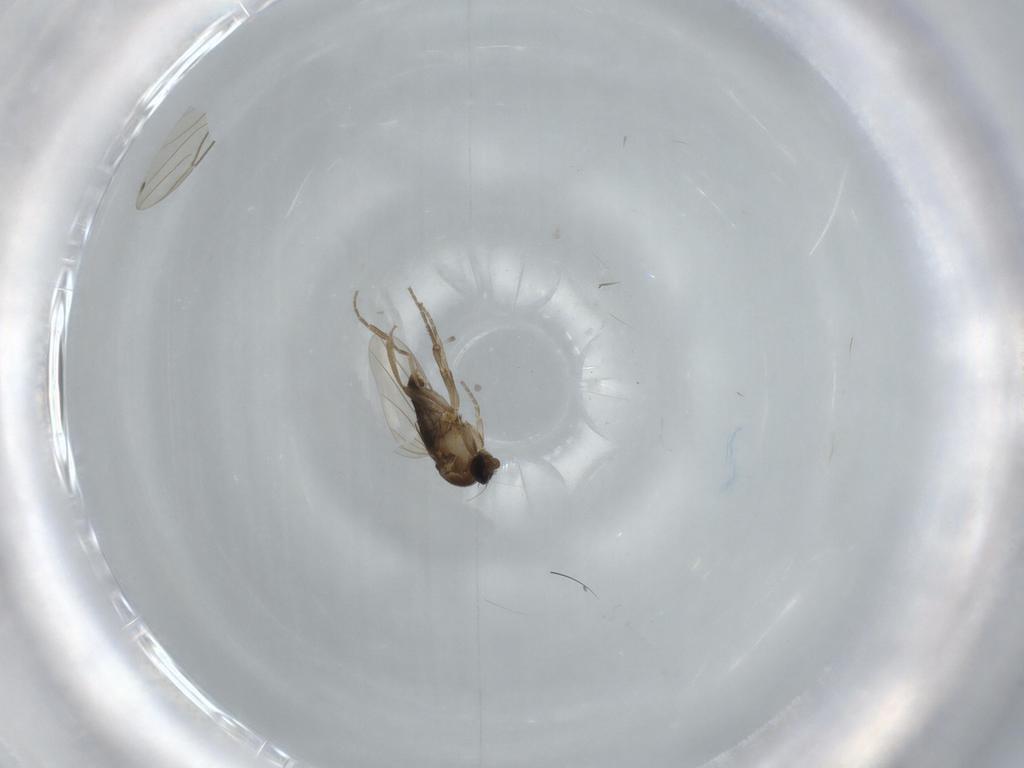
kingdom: Animalia
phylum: Arthropoda
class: Insecta
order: Diptera
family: Phoridae
